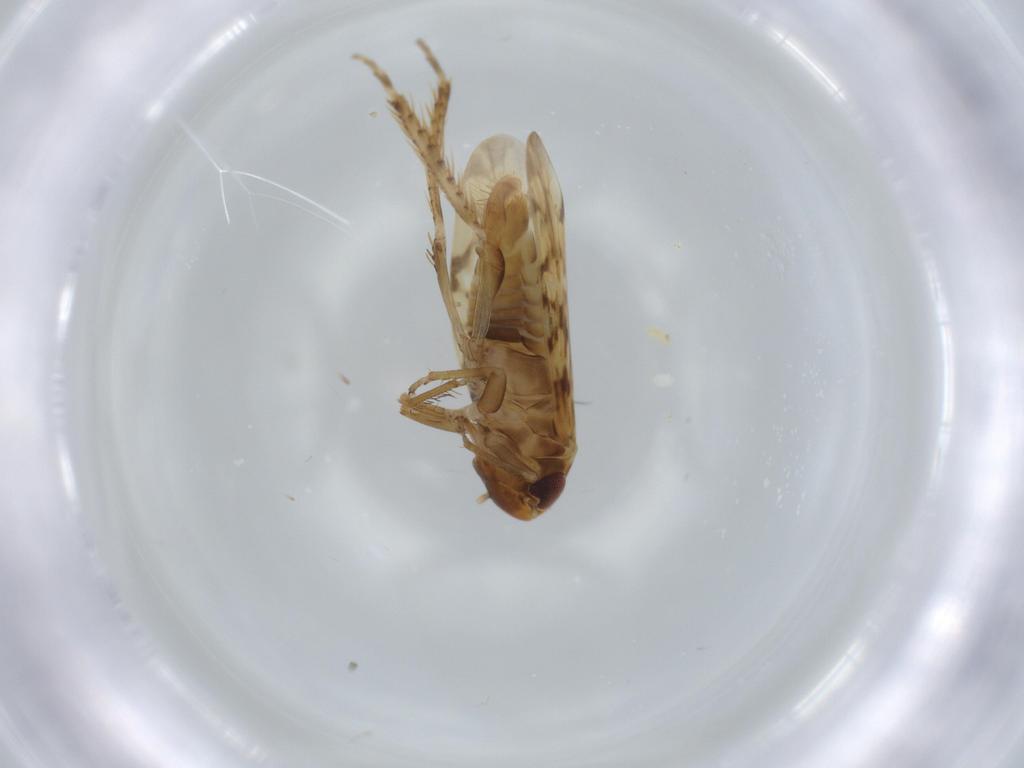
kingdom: Animalia
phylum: Arthropoda
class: Insecta
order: Hemiptera
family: Cicadellidae
